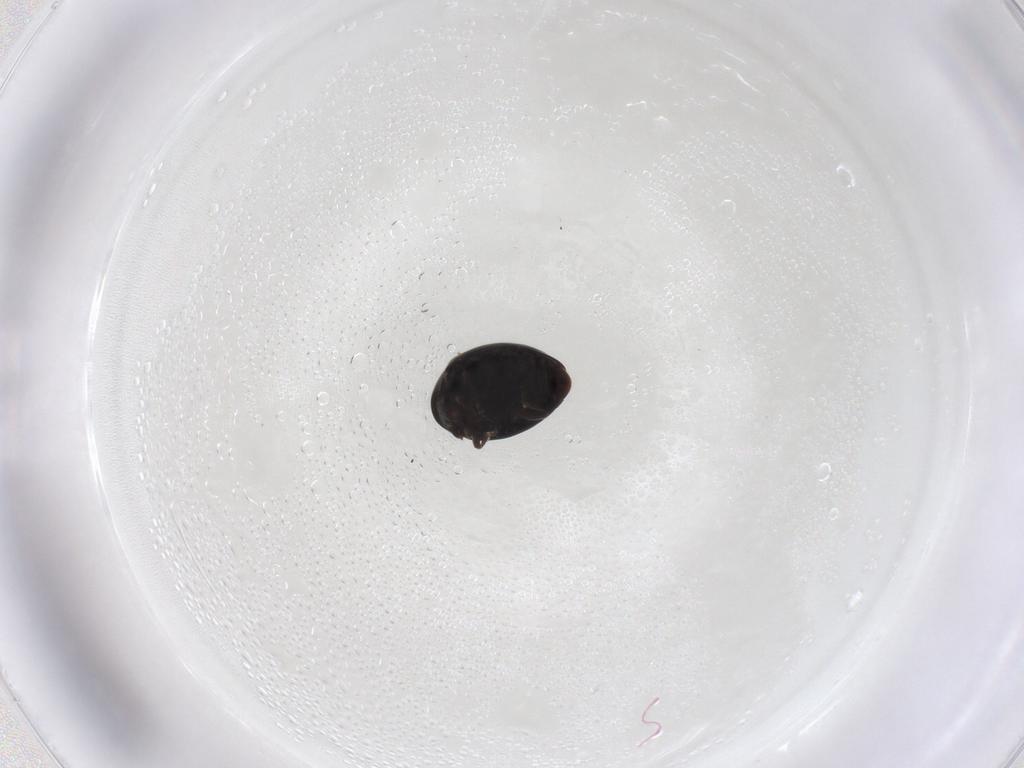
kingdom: Animalia
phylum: Arthropoda
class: Insecta
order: Coleoptera
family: Coccinellidae
